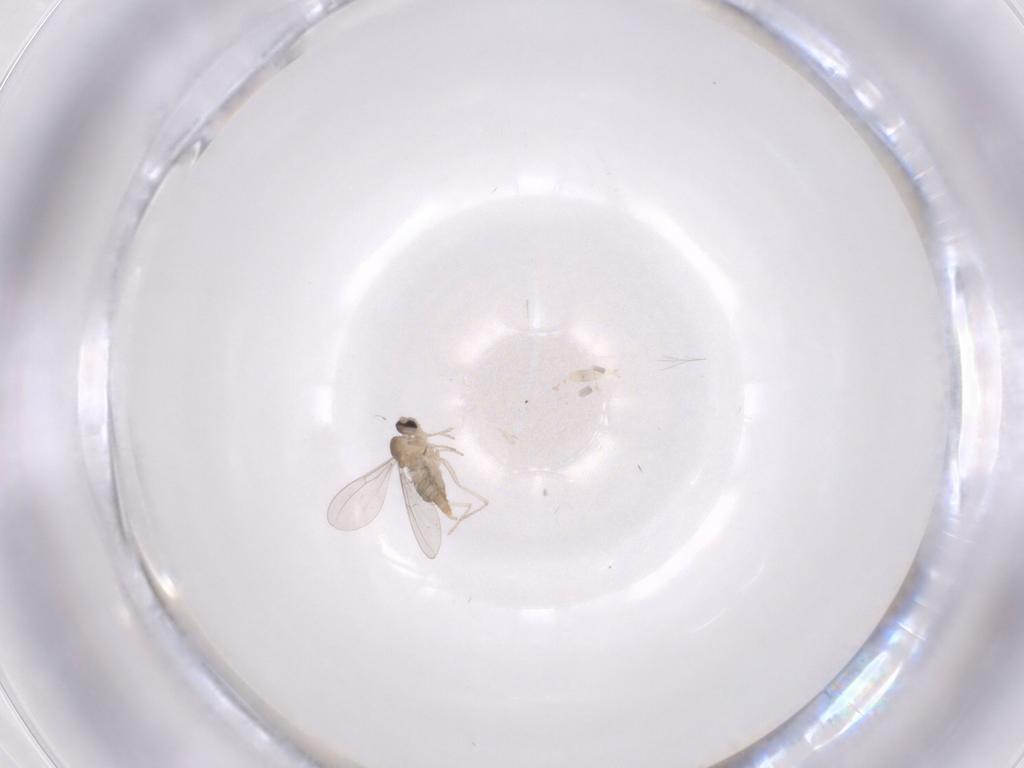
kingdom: Animalia
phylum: Arthropoda
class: Insecta
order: Diptera
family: Cecidomyiidae
